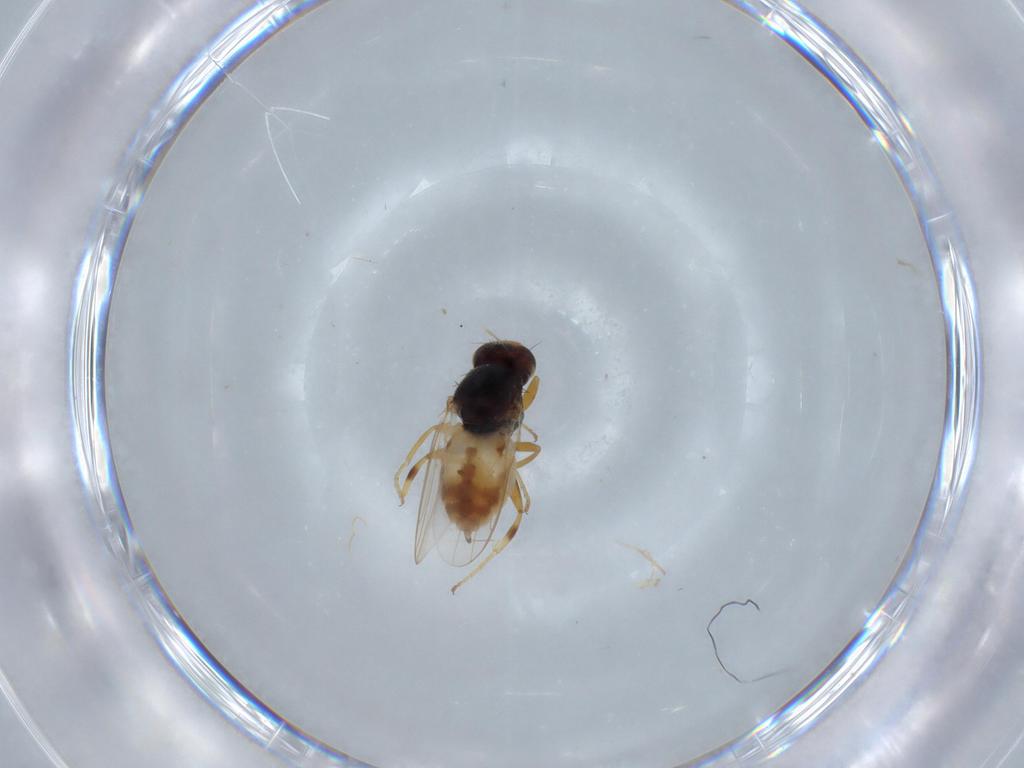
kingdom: Animalia
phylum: Arthropoda
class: Insecta
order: Diptera
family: Chloropidae
